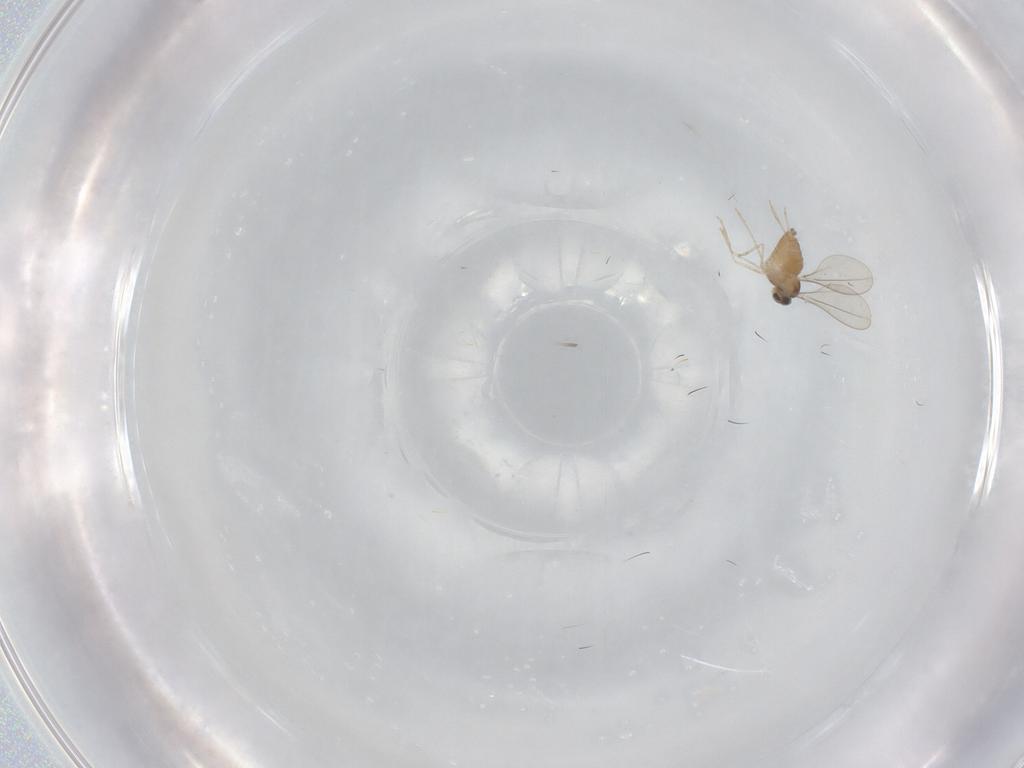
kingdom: Animalia
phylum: Arthropoda
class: Insecta
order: Diptera
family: Cecidomyiidae
